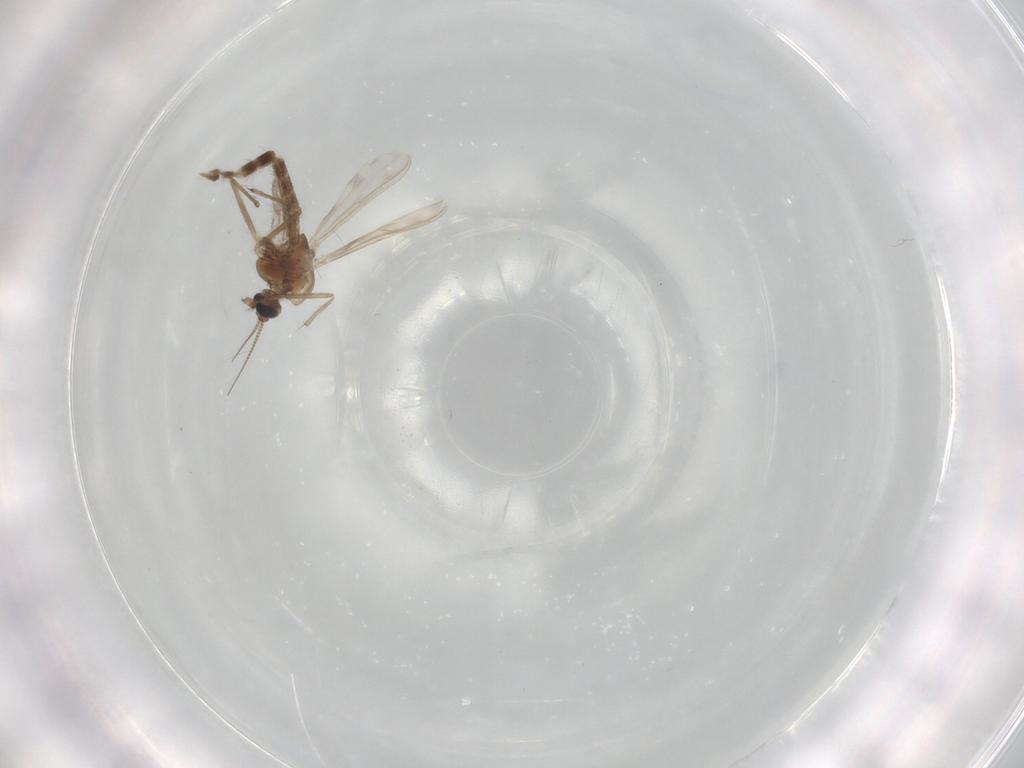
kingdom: Animalia
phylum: Arthropoda
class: Insecta
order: Diptera
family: Chironomidae
